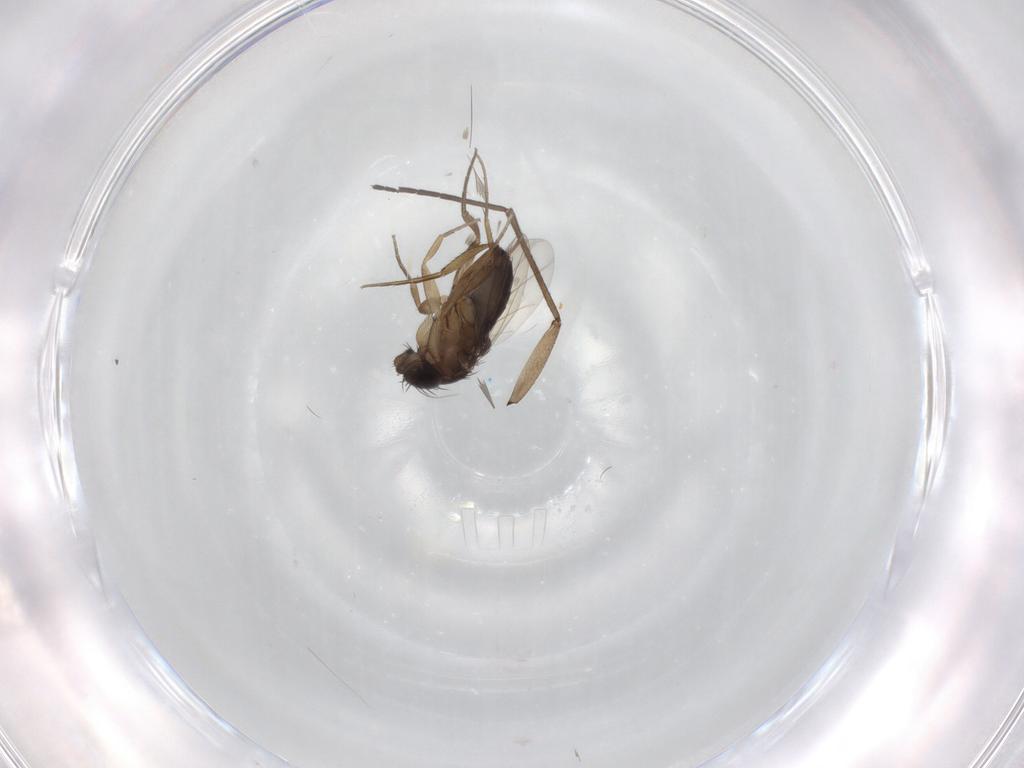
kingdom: Animalia
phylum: Arthropoda
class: Insecta
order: Diptera
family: Sciaridae
